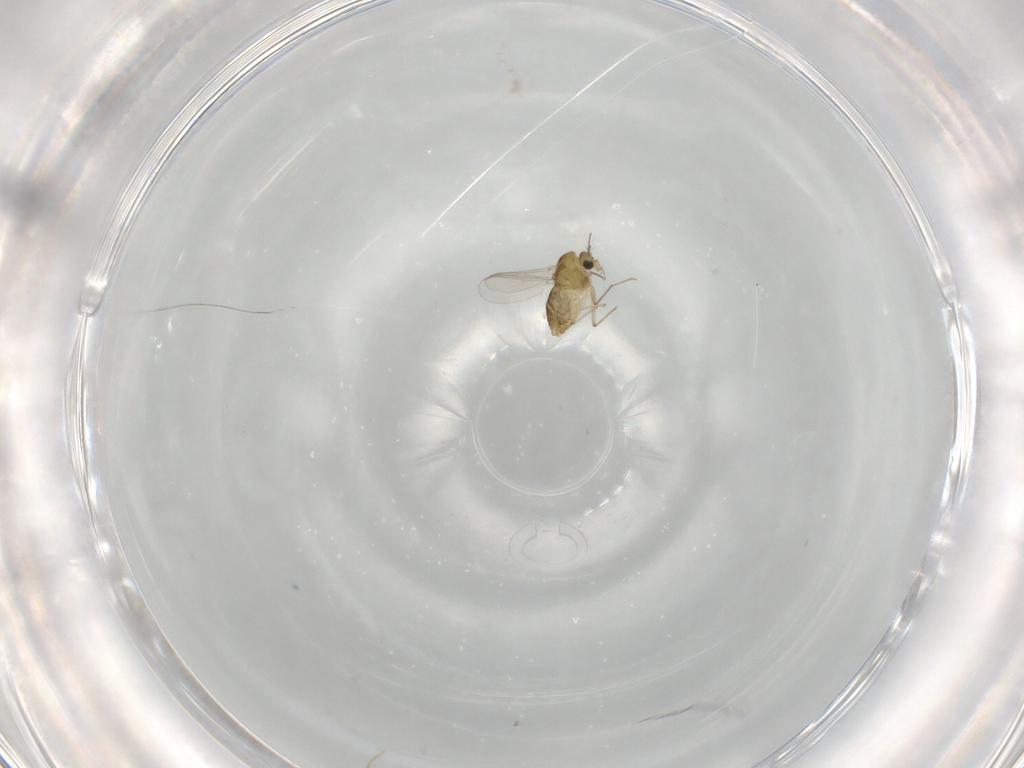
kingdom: Animalia
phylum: Arthropoda
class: Insecta
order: Diptera
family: Chironomidae
